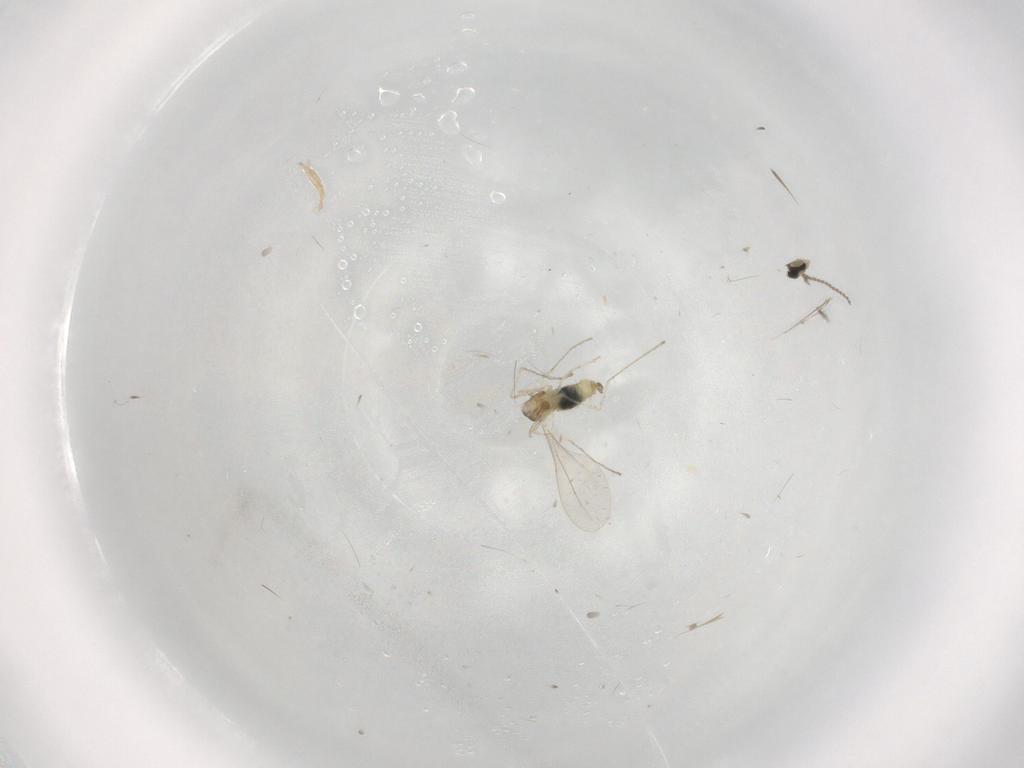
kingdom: Animalia
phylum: Arthropoda
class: Insecta
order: Diptera
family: Cecidomyiidae
